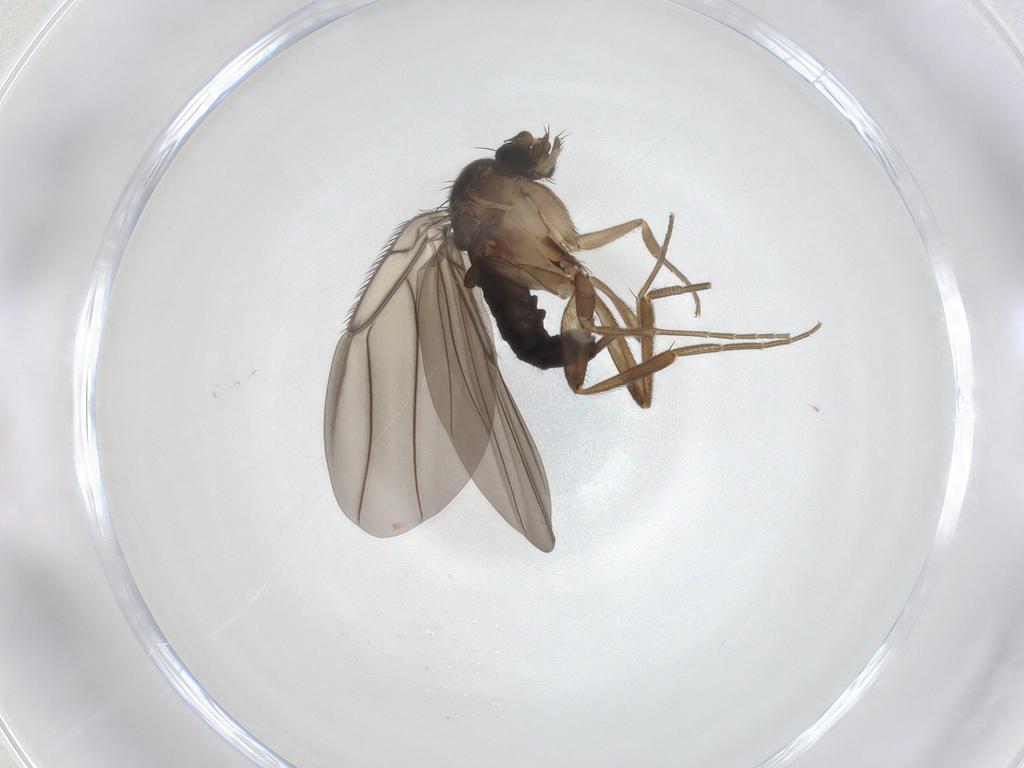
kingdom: Animalia
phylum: Arthropoda
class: Insecta
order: Diptera
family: Phoridae
